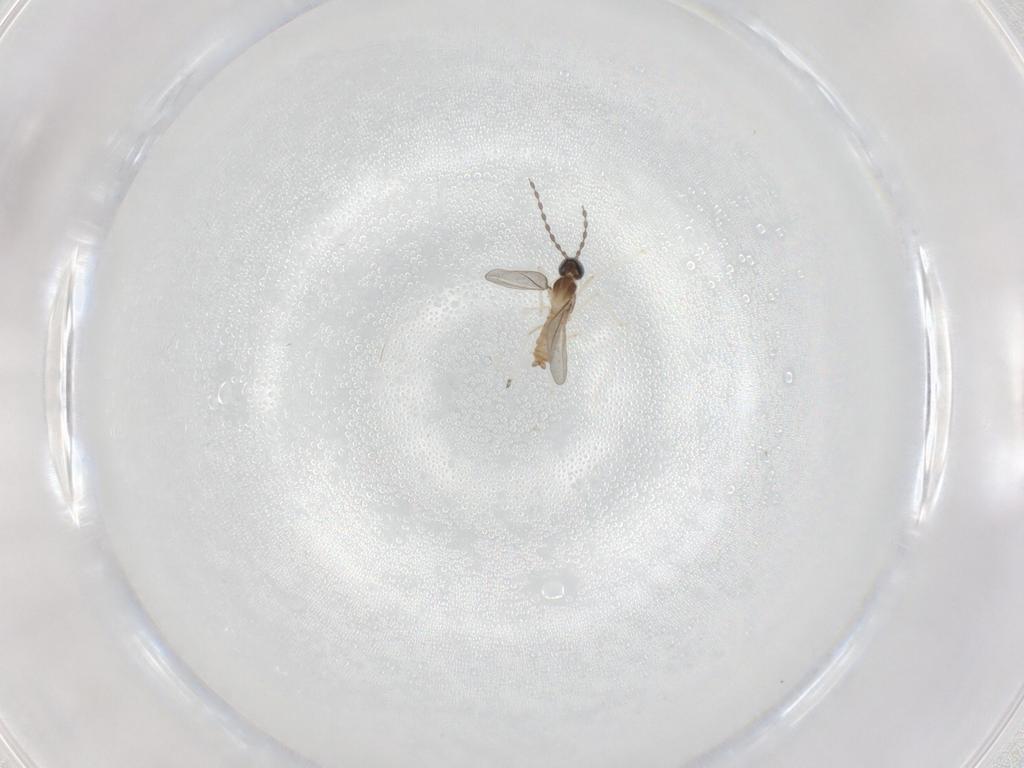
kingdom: Animalia
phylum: Arthropoda
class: Insecta
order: Diptera
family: Cecidomyiidae
